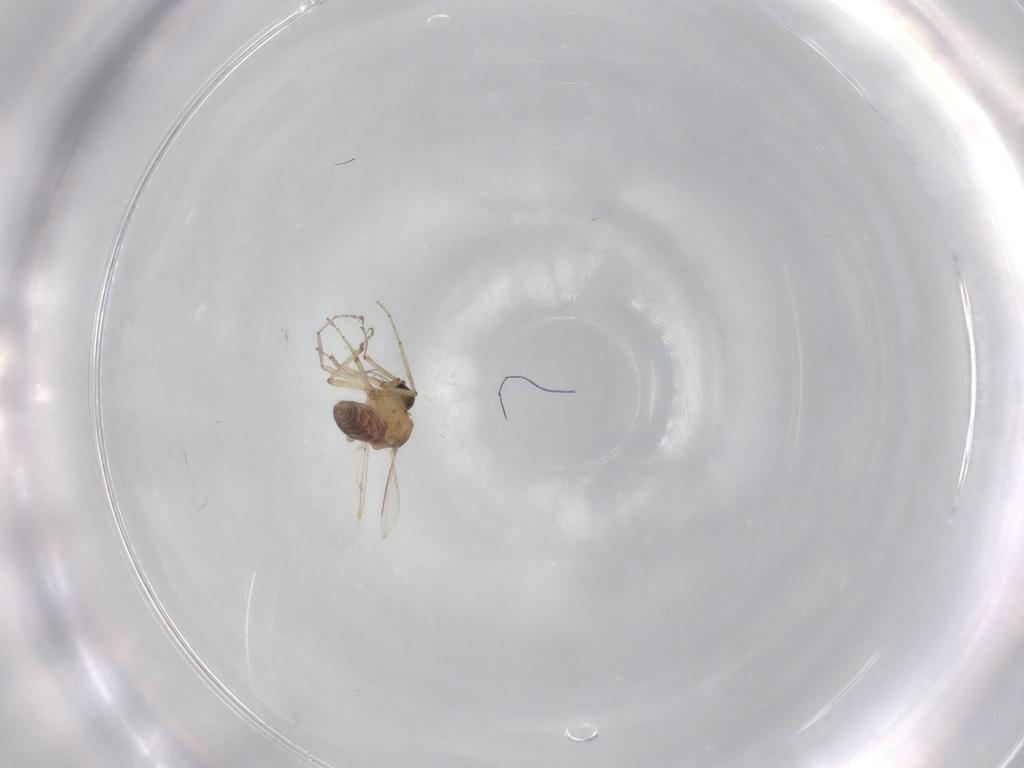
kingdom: Animalia
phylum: Arthropoda
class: Insecta
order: Diptera
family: Ceratopogonidae
